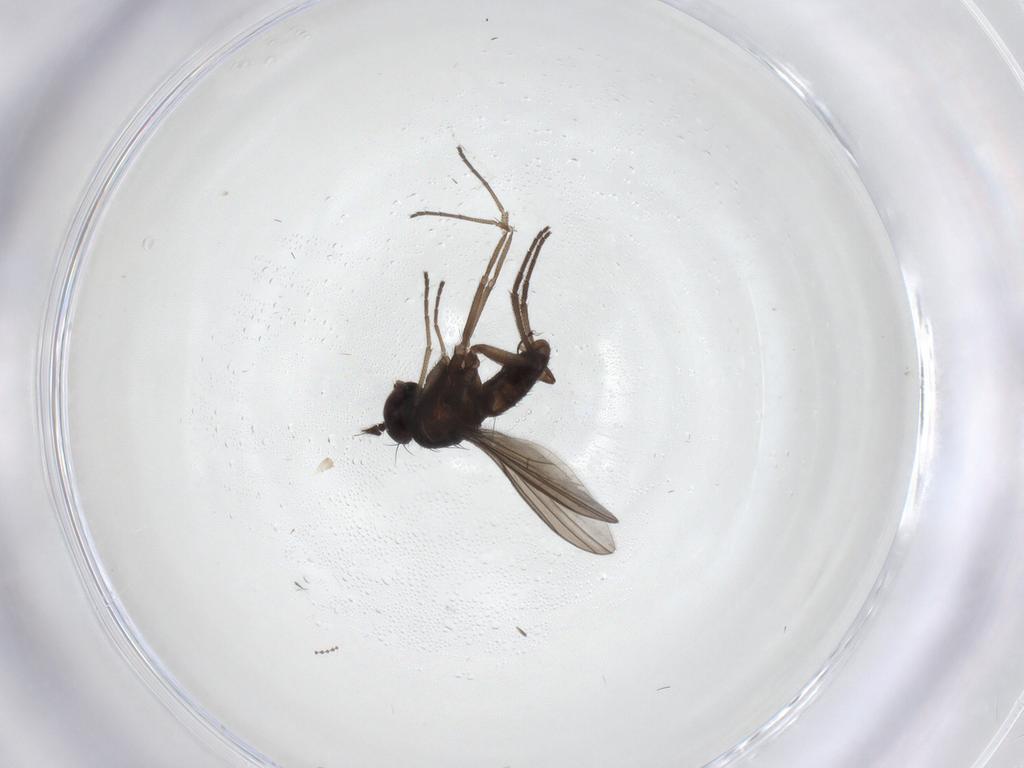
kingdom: Animalia
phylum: Arthropoda
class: Insecta
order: Diptera
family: Dolichopodidae
